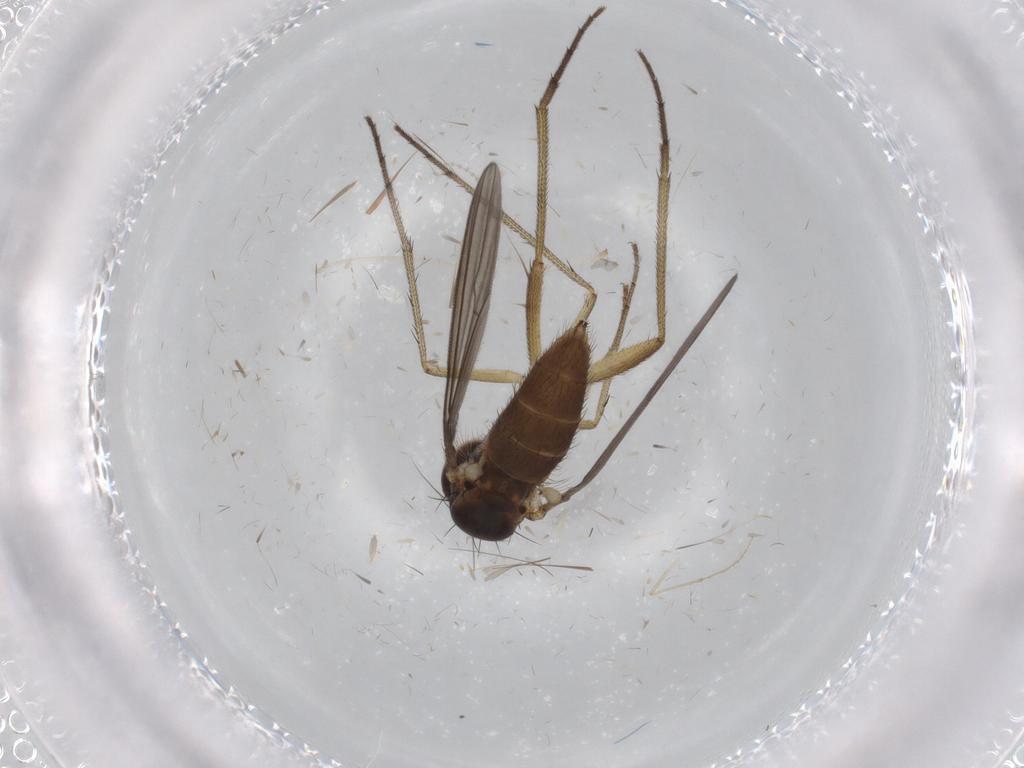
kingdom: Animalia
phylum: Arthropoda
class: Insecta
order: Diptera
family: Dolichopodidae
